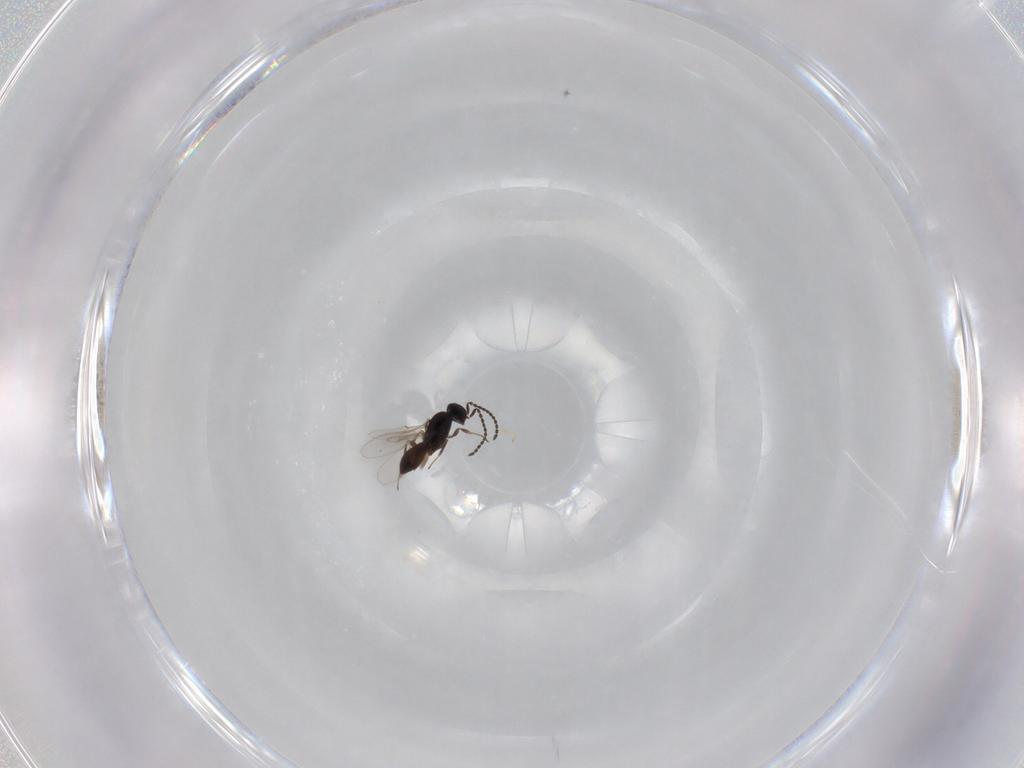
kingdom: Animalia
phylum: Arthropoda
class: Insecta
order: Hymenoptera
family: Scelionidae
